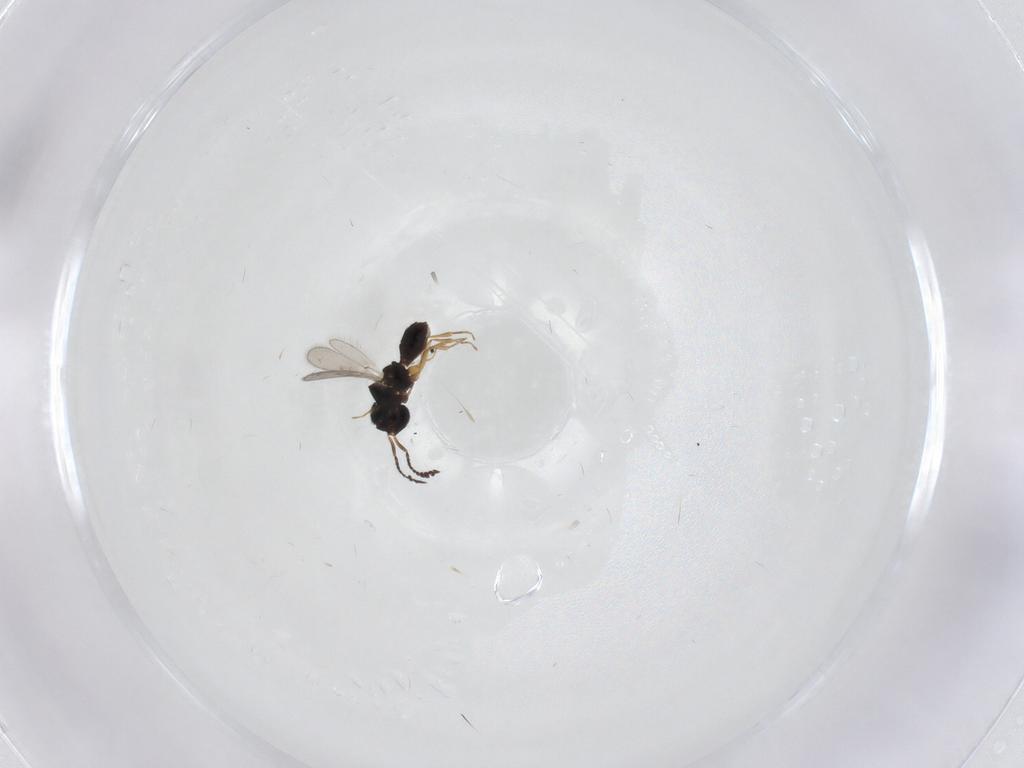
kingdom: Animalia
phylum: Arthropoda
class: Insecta
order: Hymenoptera
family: Scelionidae
